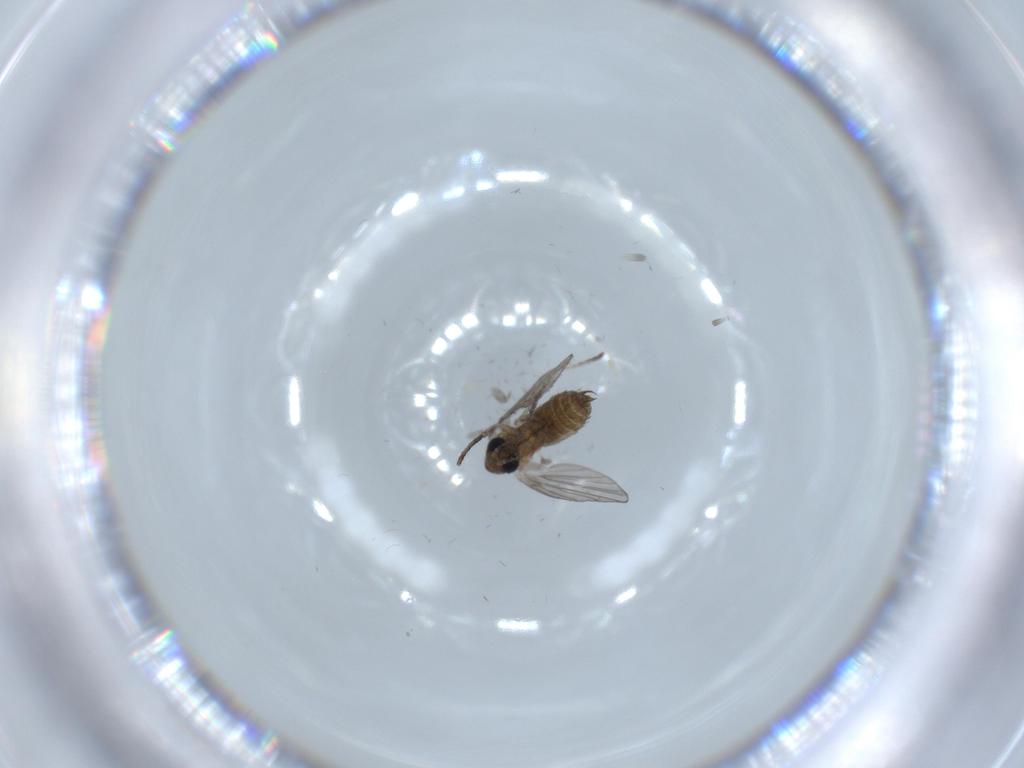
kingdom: Animalia
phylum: Arthropoda
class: Insecta
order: Diptera
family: Psychodidae
